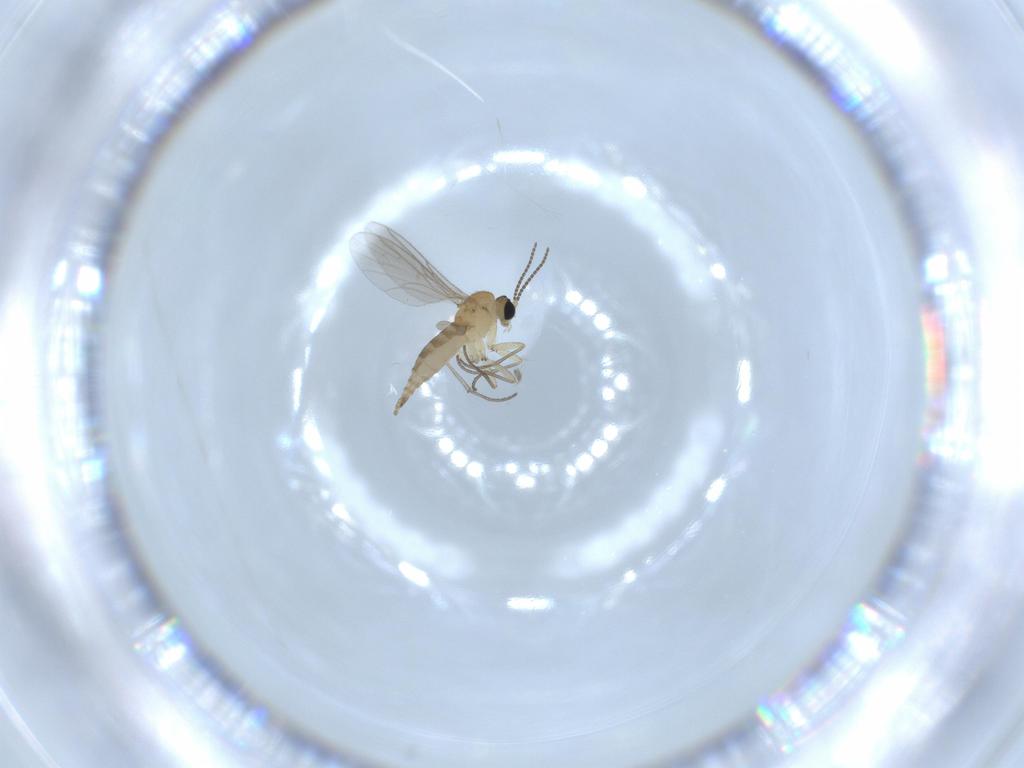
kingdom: Animalia
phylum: Arthropoda
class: Insecta
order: Diptera
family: Sciaridae
